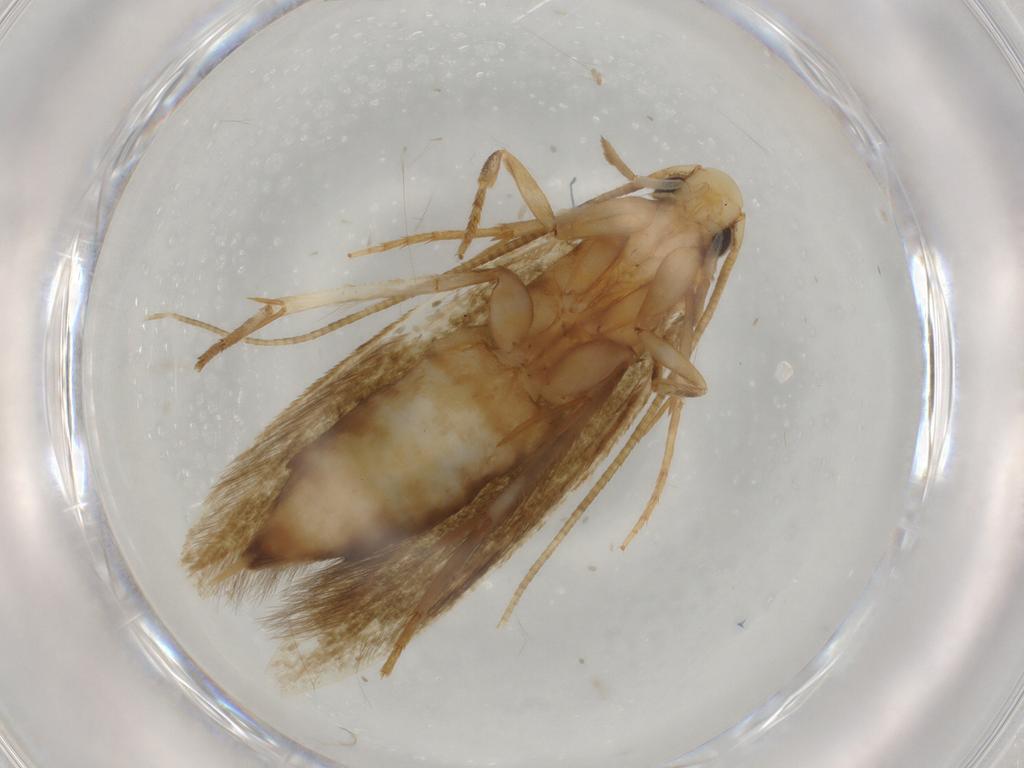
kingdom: Animalia
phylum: Arthropoda
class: Insecta
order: Lepidoptera
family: Tineidae
